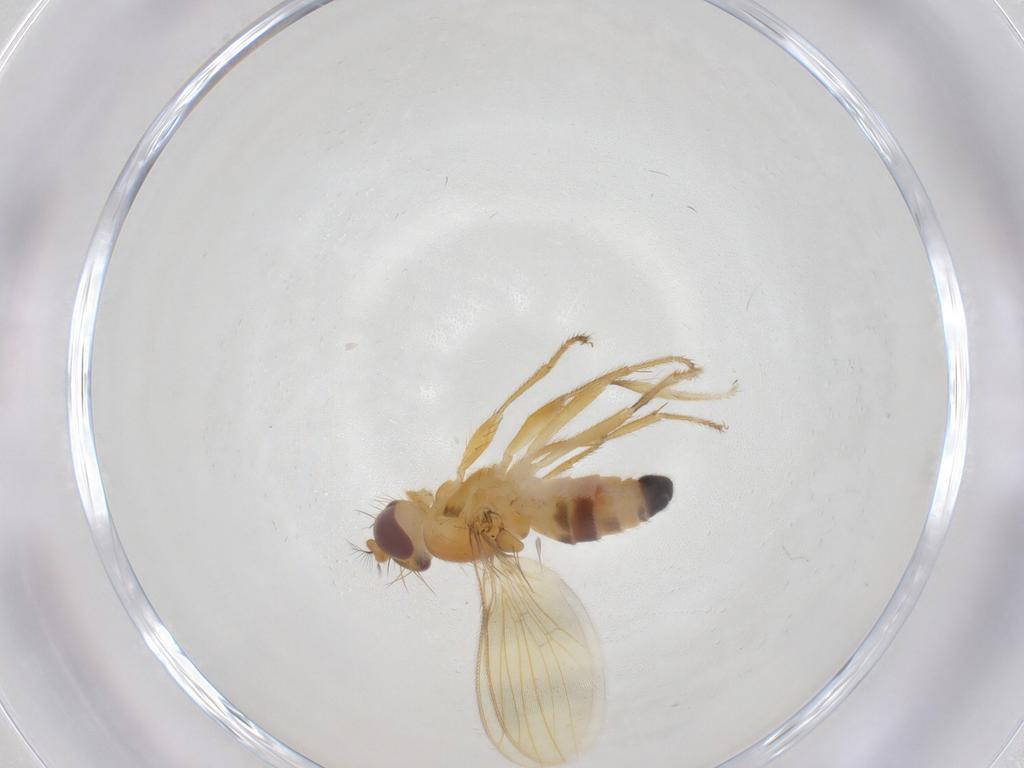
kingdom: Animalia
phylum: Arthropoda
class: Insecta
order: Diptera
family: Periscelididae
